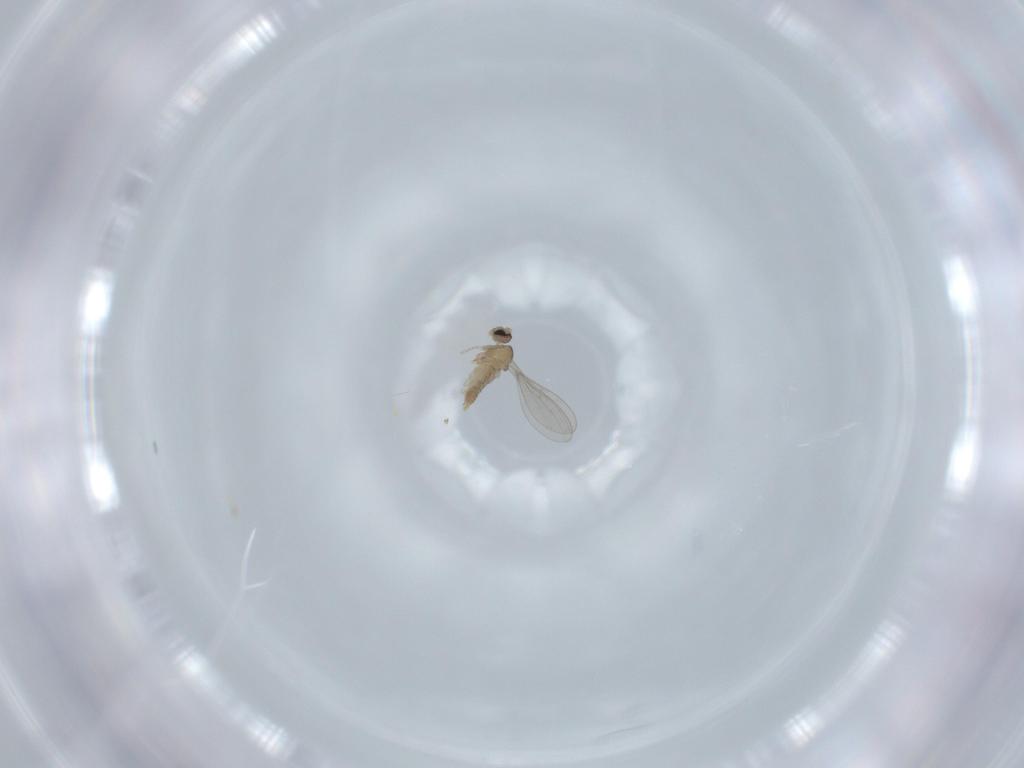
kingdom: Animalia
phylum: Arthropoda
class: Insecta
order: Diptera
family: Cecidomyiidae
